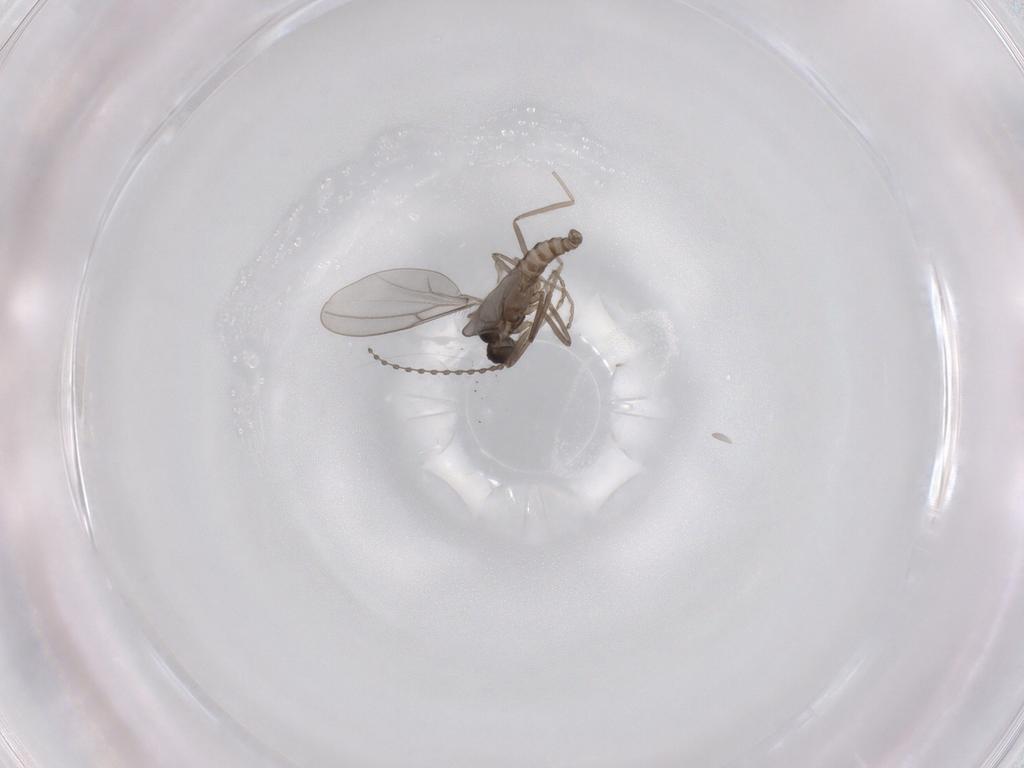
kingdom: Animalia
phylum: Arthropoda
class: Insecta
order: Diptera
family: Cecidomyiidae
